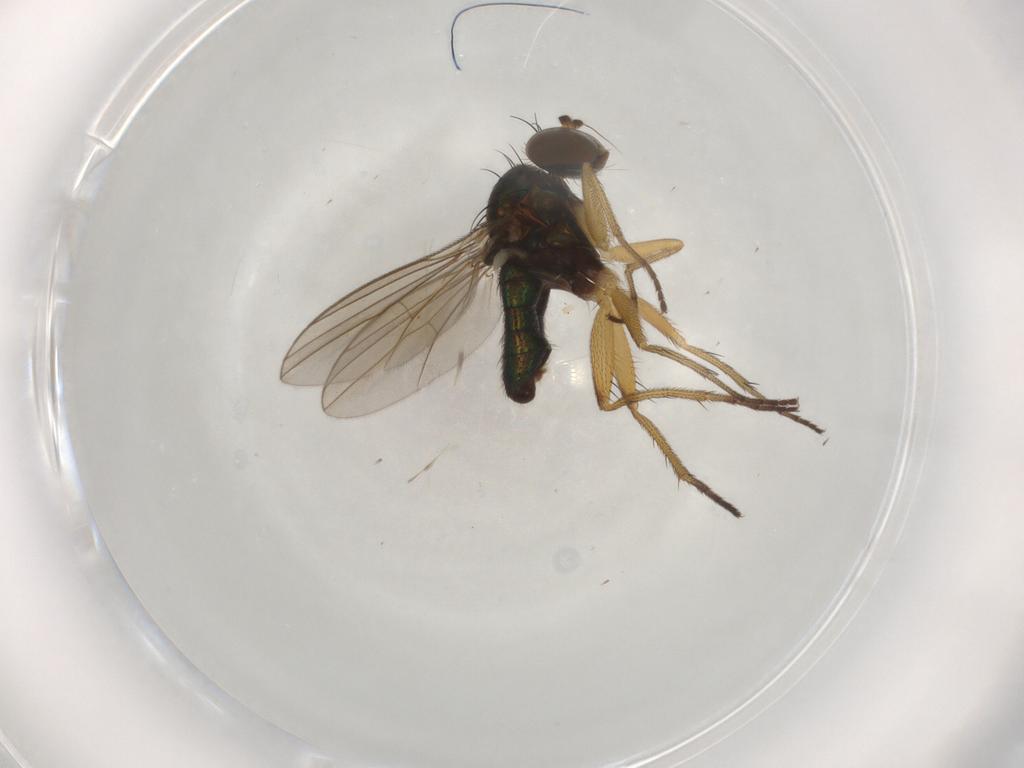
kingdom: Animalia
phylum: Arthropoda
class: Insecta
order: Diptera
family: Dolichopodidae
